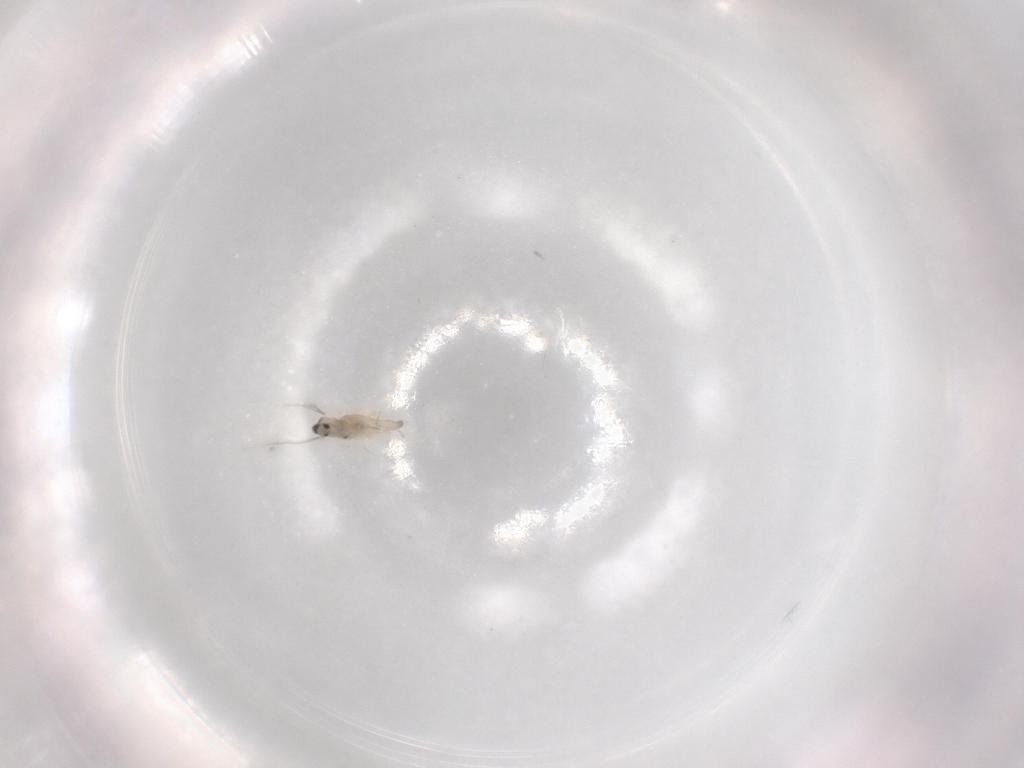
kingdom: Animalia
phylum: Arthropoda
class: Insecta
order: Diptera
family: Cecidomyiidae
